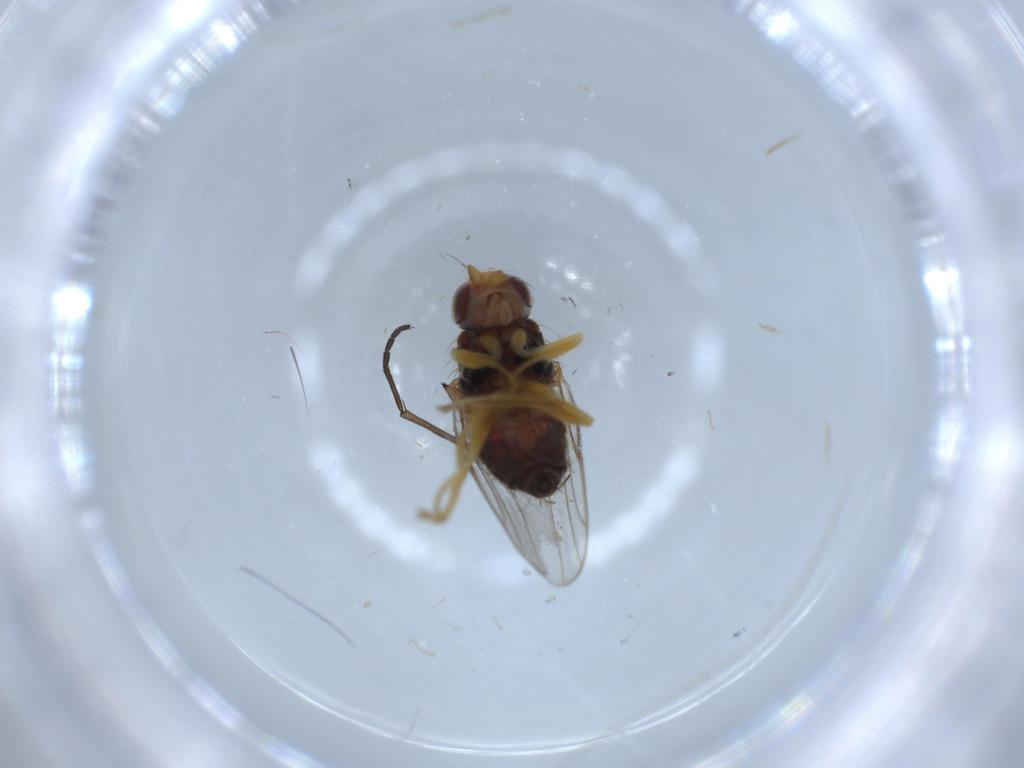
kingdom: Animalia
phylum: Arthropoda
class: Insecta
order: Diptera
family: Chloropidae
